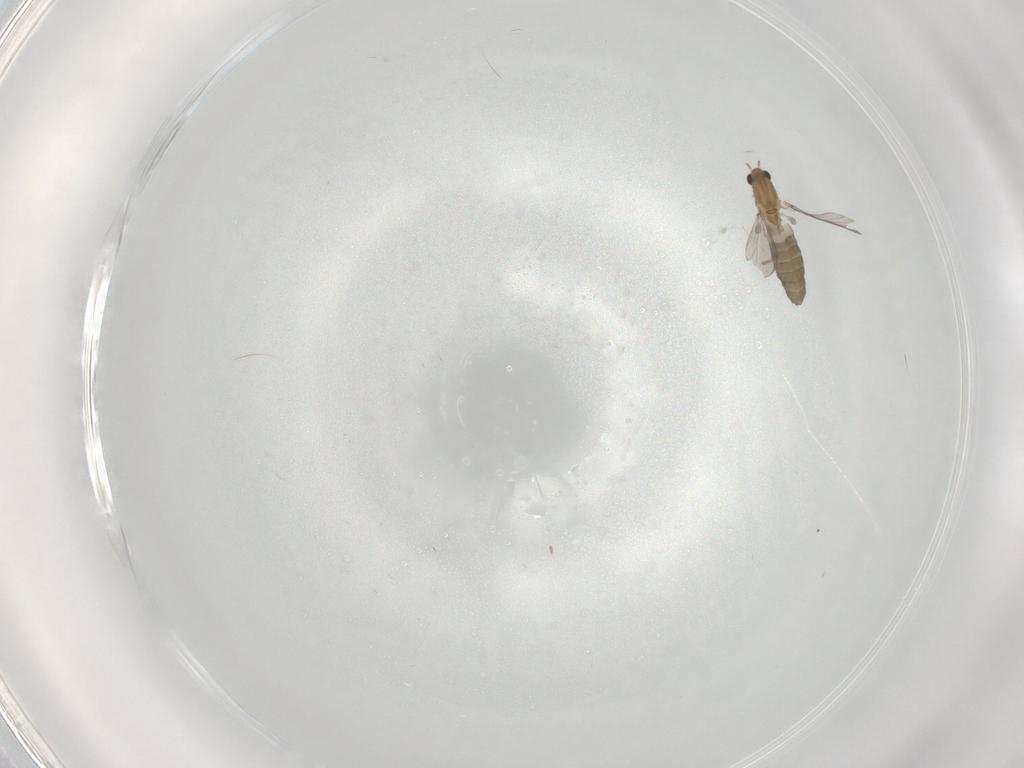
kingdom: Animalia
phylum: Arthropoda
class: Insecta
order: Diptera
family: Chironomidae
